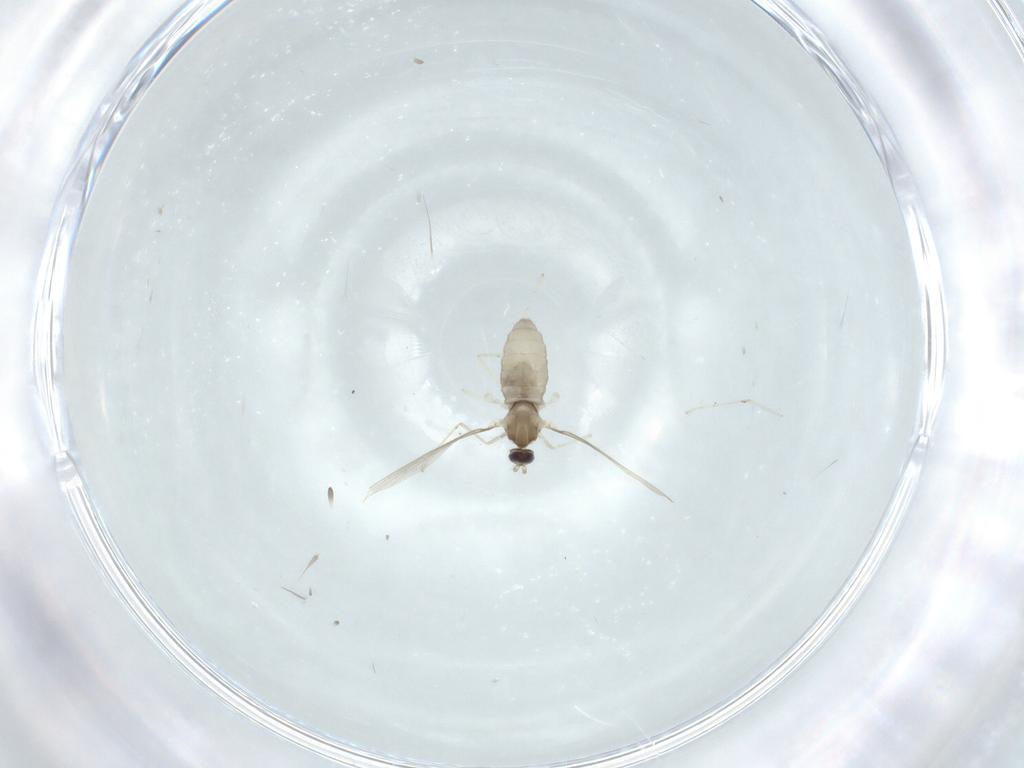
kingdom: Animalia
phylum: Arthropoda
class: Insecta
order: Diptera
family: Cecidomyiidae
